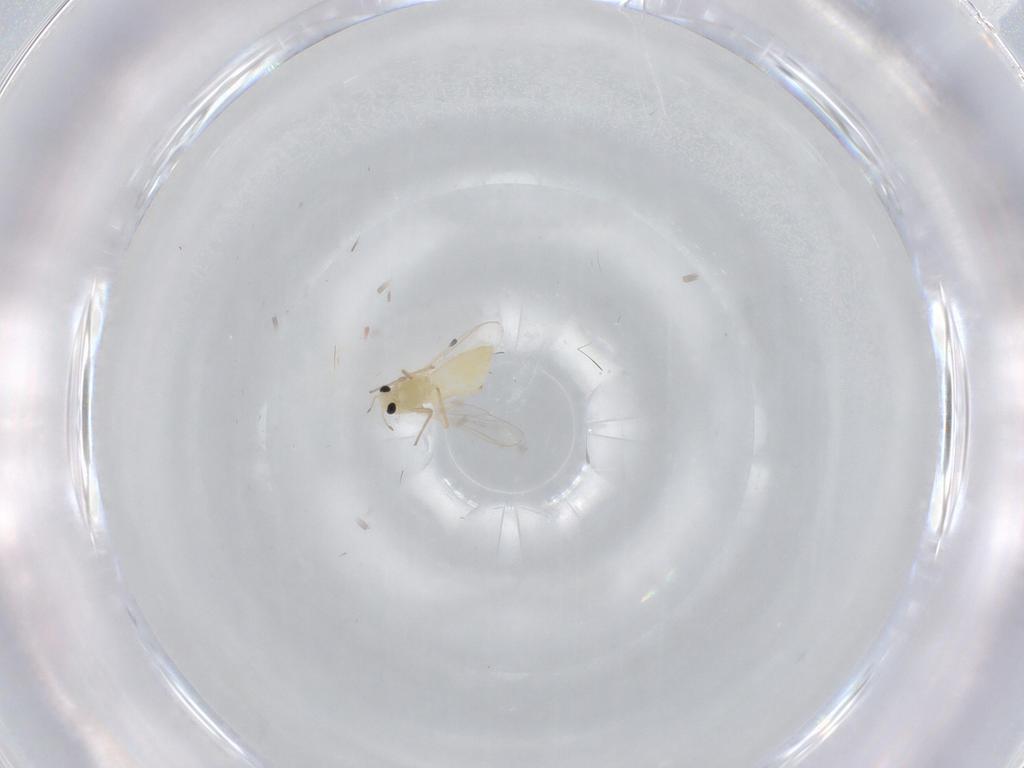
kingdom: Animalia
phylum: Arthropoda
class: Insecta
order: Diptera
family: Chironomidae
